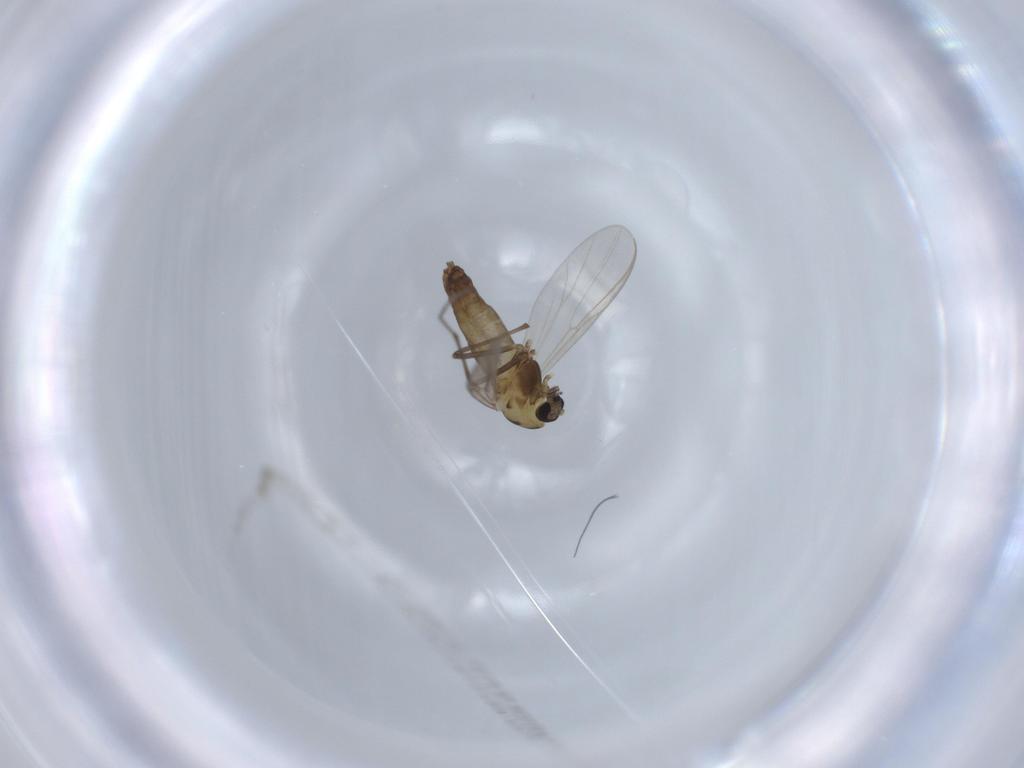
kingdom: Animalia
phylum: Arthropoda
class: Insecta
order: Diptera
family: Chironomidae
